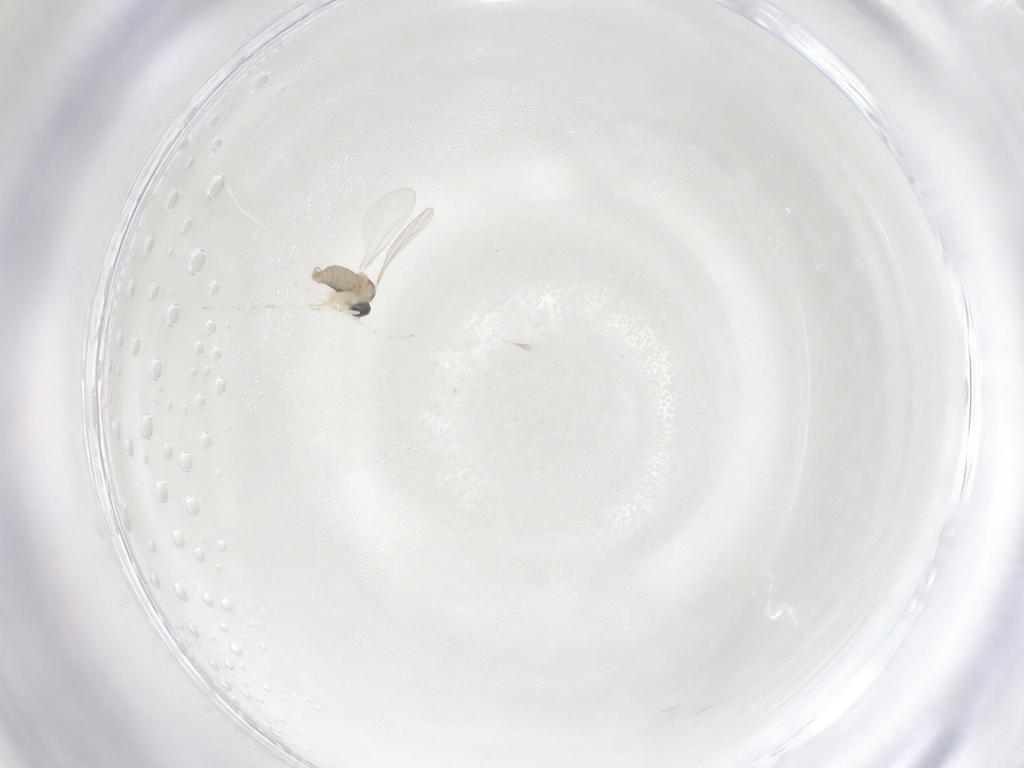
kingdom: Animalia
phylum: Arthropoda
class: Insecta
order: Diptera
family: Cecidomyiidae
